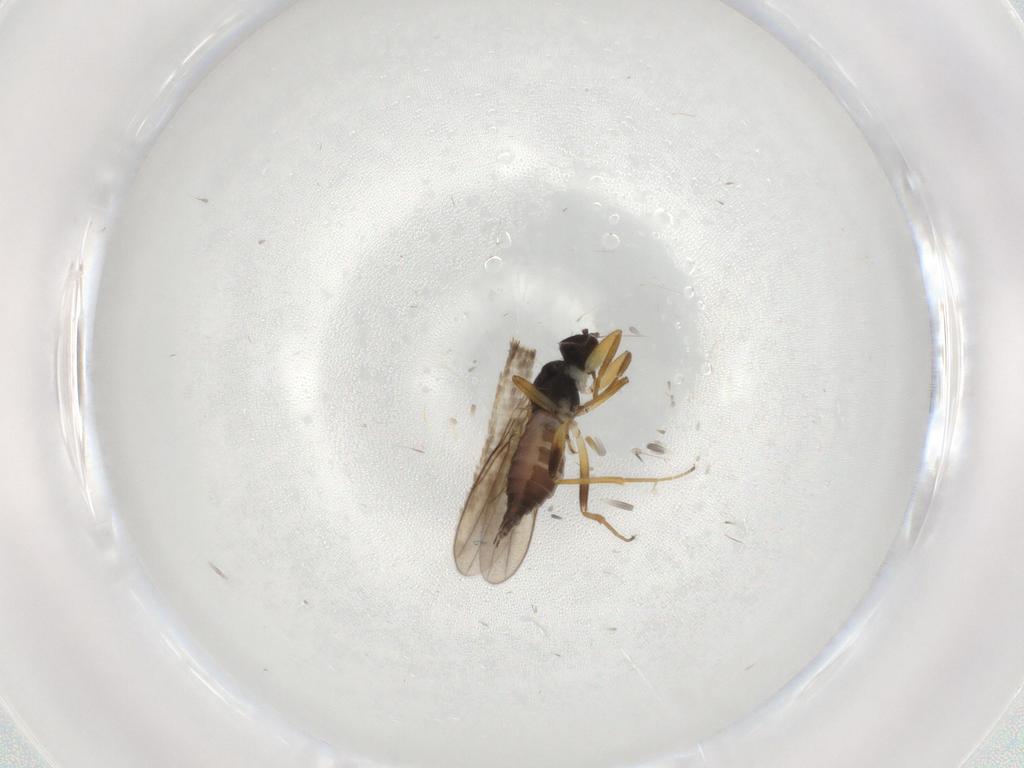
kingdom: Animalia
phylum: Arthropoda
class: Insecta
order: Diptera
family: Hybotidae
